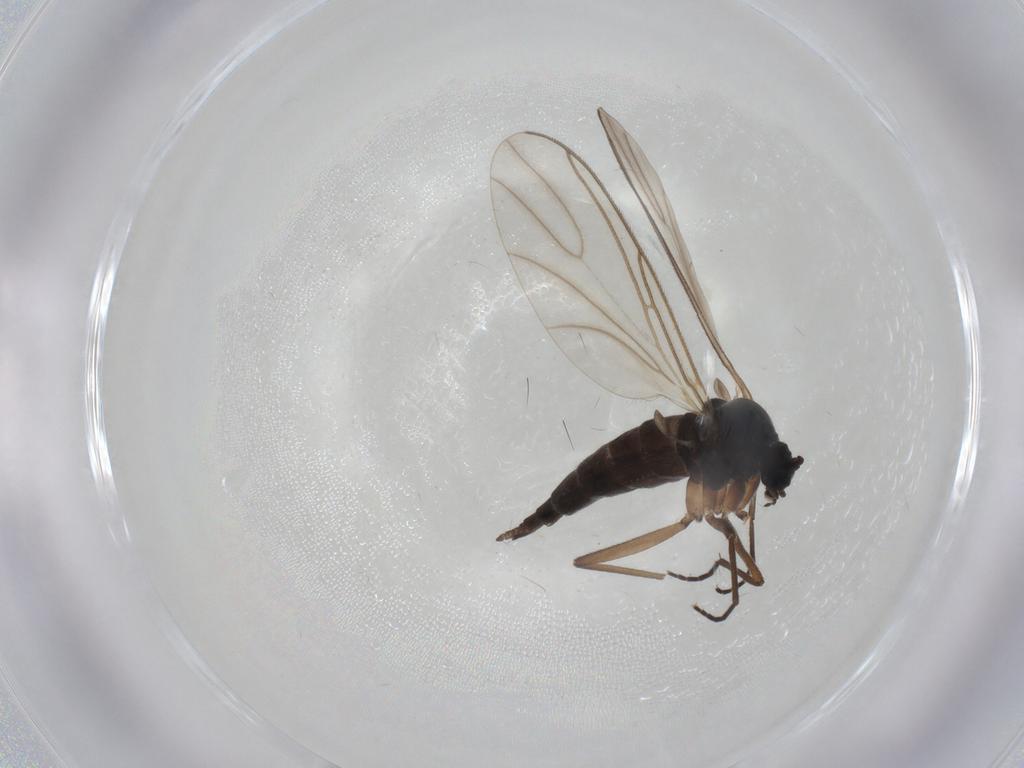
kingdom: Animalia
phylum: Arthropoda
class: Insecta
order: Diptera
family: Sciaridae
